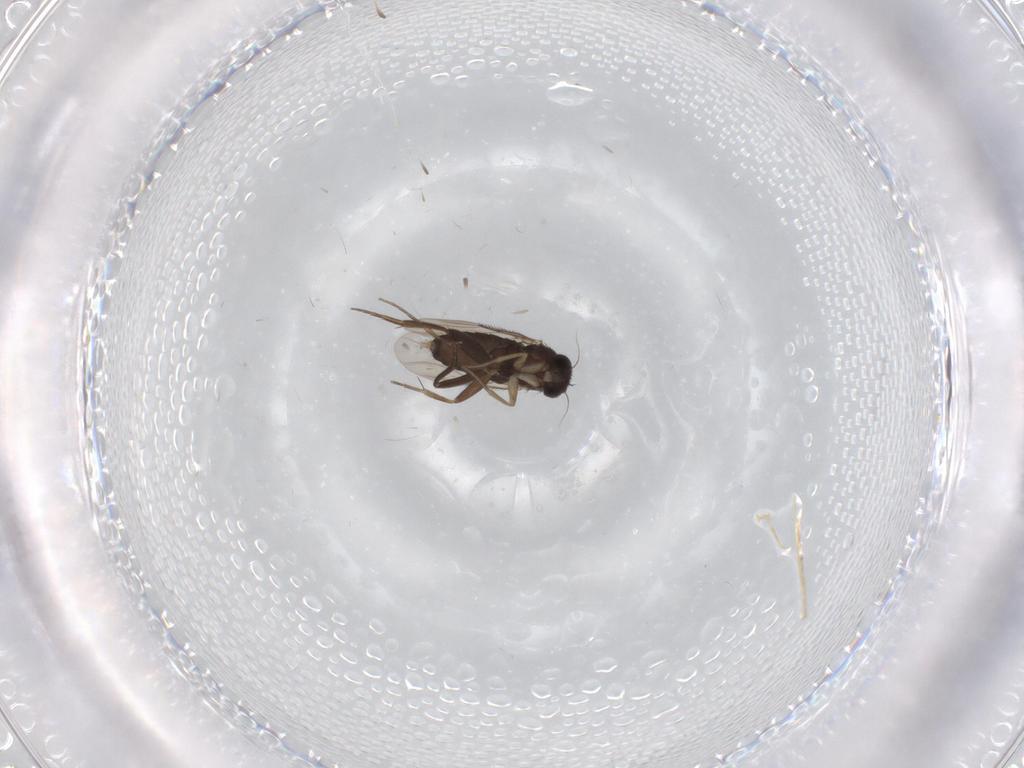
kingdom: Animalia
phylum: Arthropoda
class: Insecta
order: Diptera
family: Phoridae
